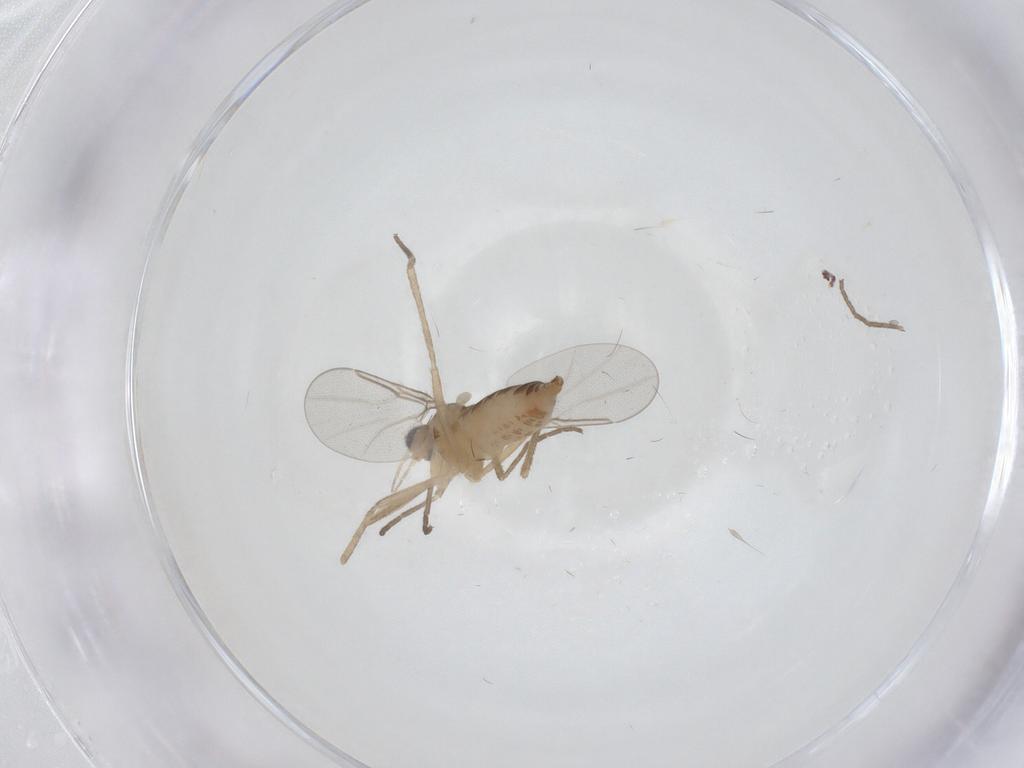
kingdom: Animalia
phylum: Arthropoda
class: Insecta
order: Diptera
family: Cecidomyiidae
